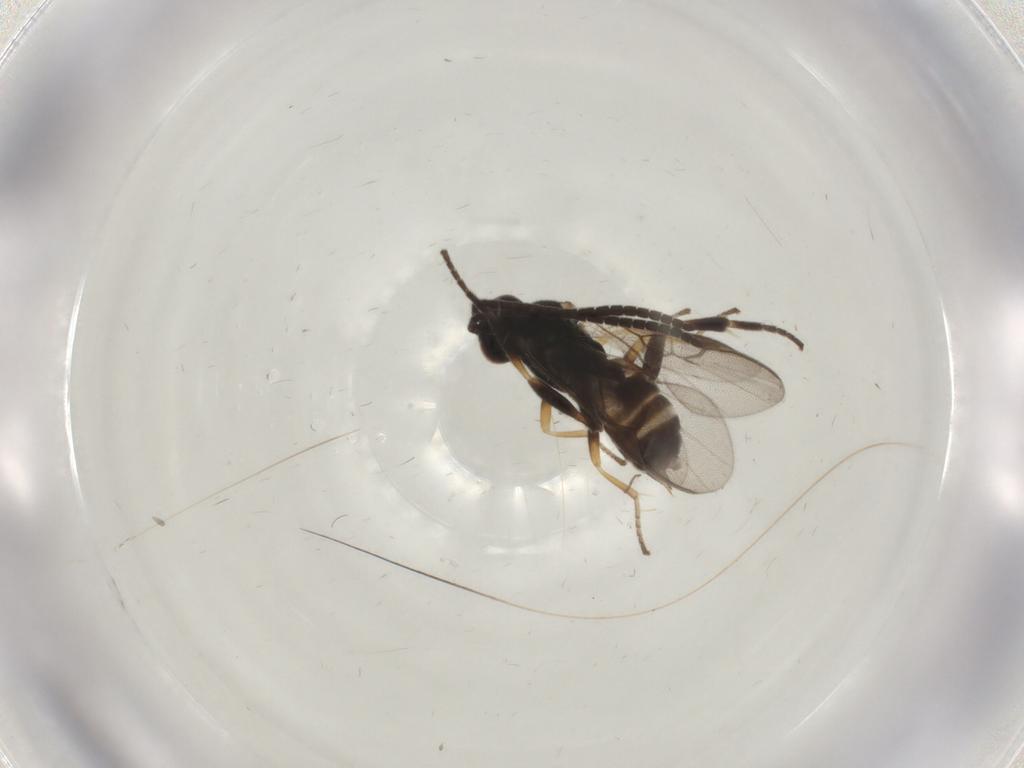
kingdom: Animalia
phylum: Arthropoda
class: Insecta
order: Hymenoptera
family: Braconidae
